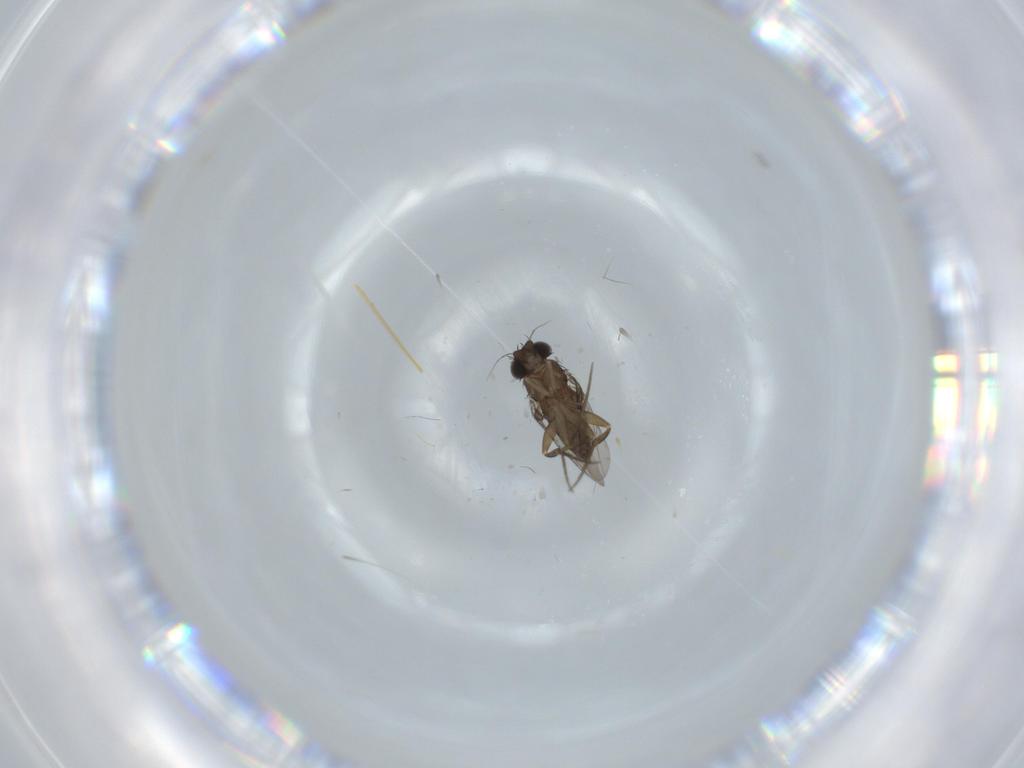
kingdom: Animalia
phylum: Arthropoda
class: Insecta
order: Diptera
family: Phoridae
